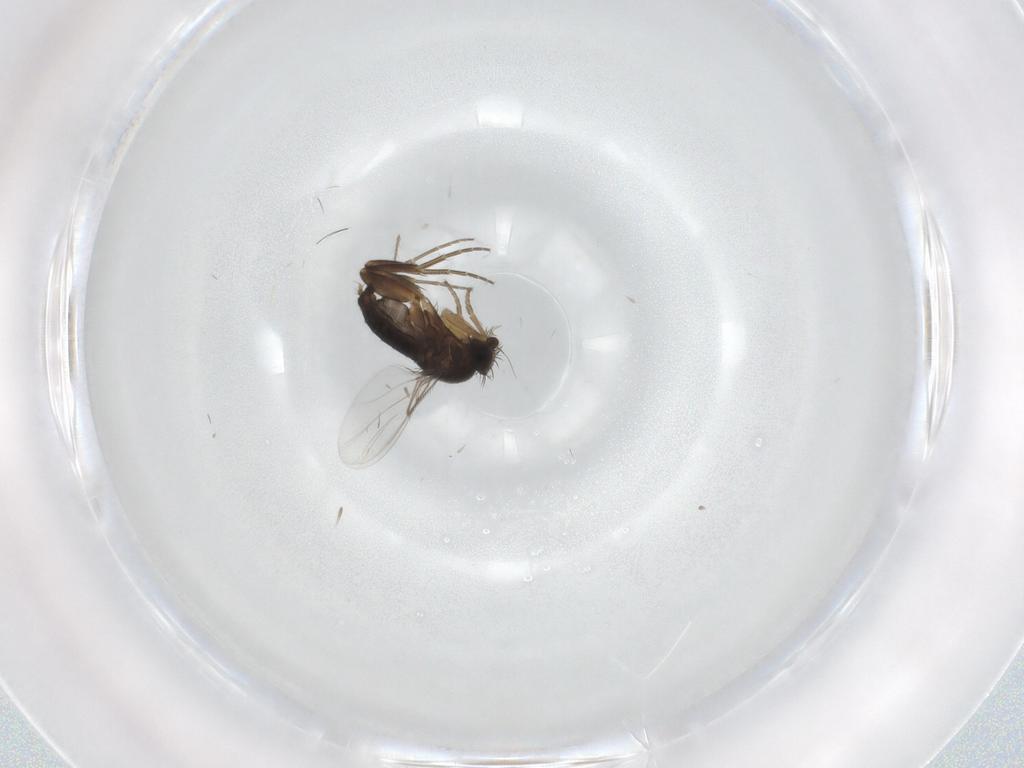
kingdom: Animalia
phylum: Arthropoda
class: Insecta
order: Diptera
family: Phoridae
